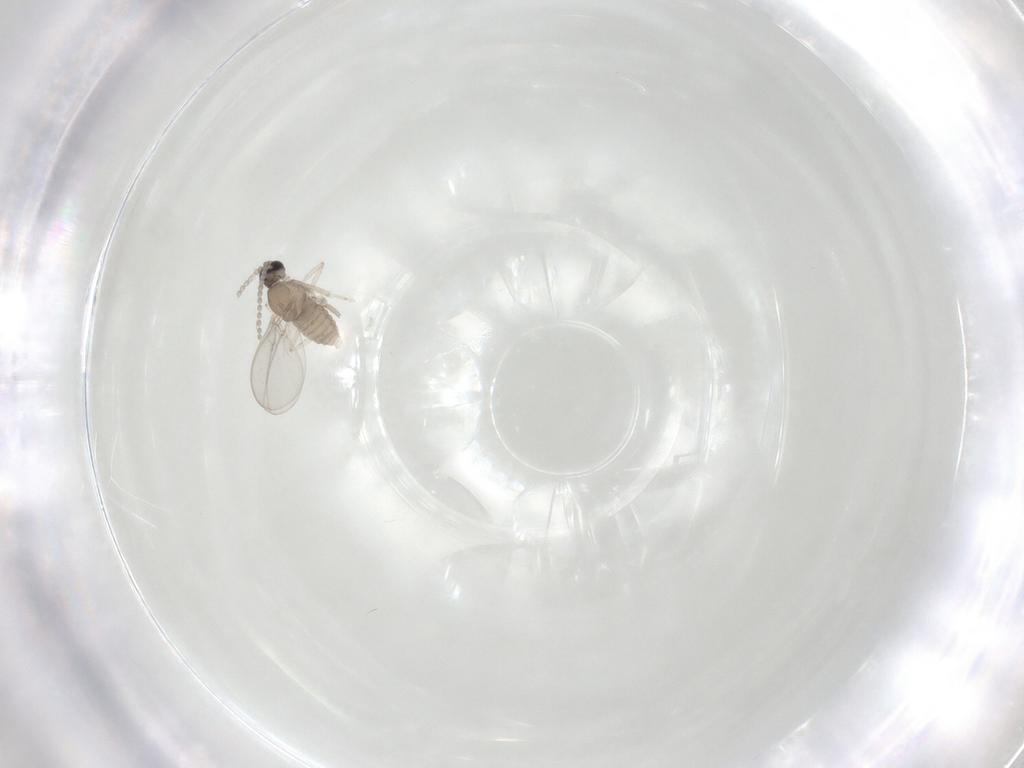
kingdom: Animalia
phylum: Arthropoda
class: Insecta
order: Diptera
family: Cecidomyiidae
